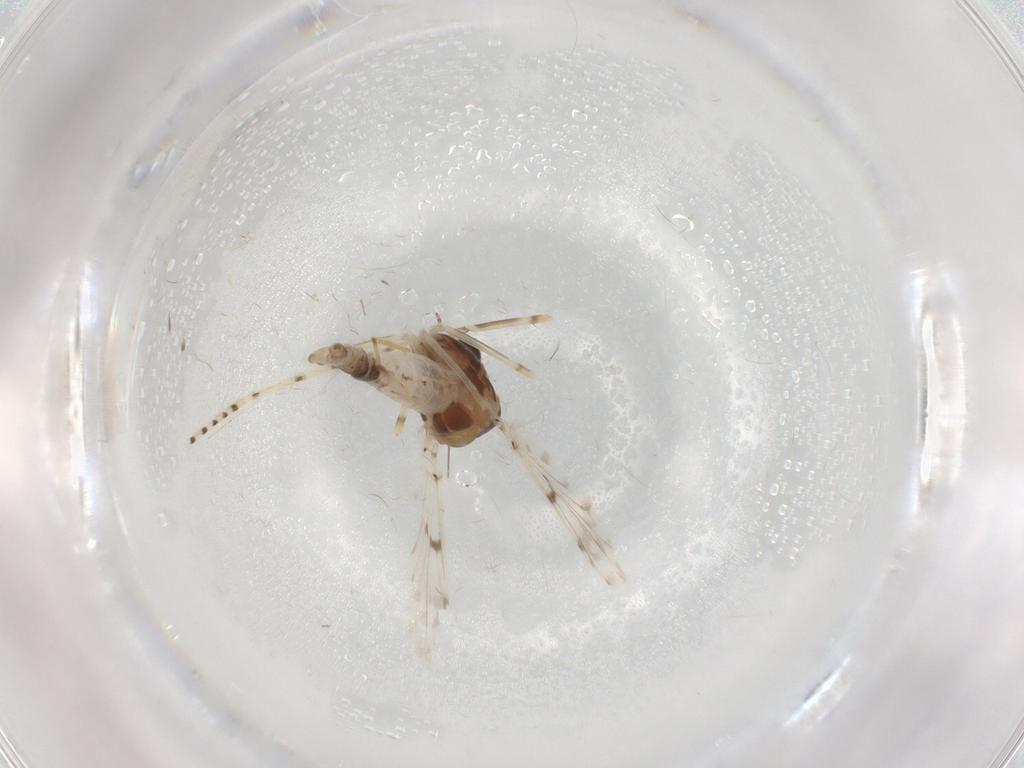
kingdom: Animalia
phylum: Arthropoda
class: Insecta
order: Diptera
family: Chironomidae
